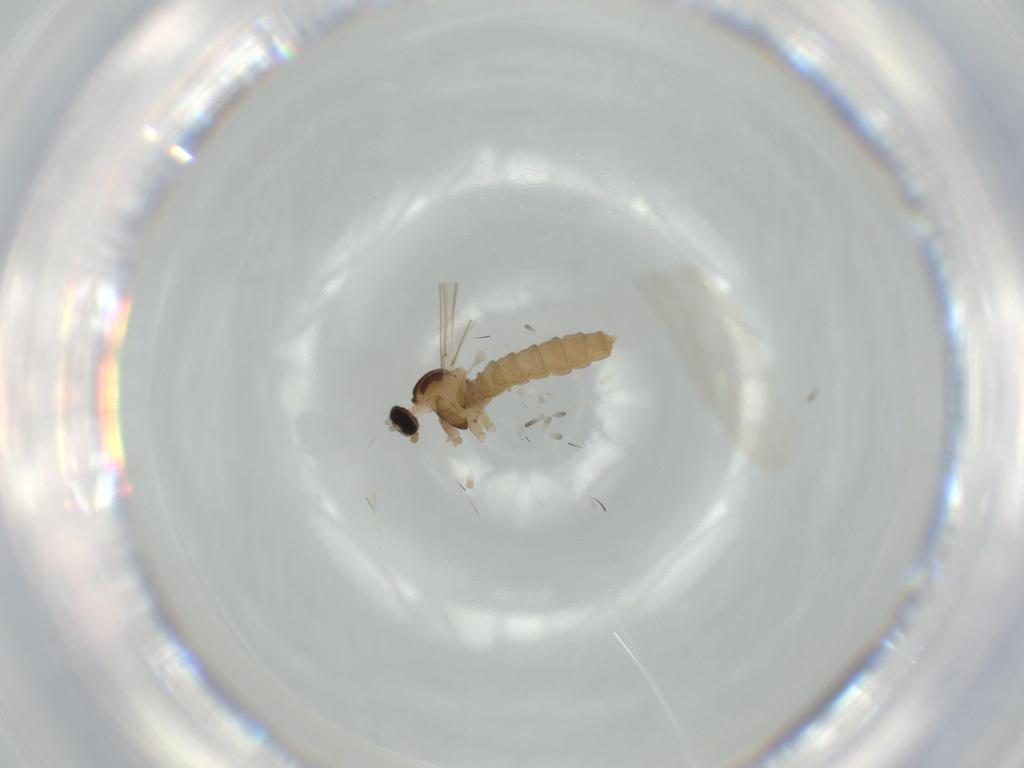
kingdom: Animalia
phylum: Arthropoda
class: Insecta
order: Diptera
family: Cecidomyiidae
